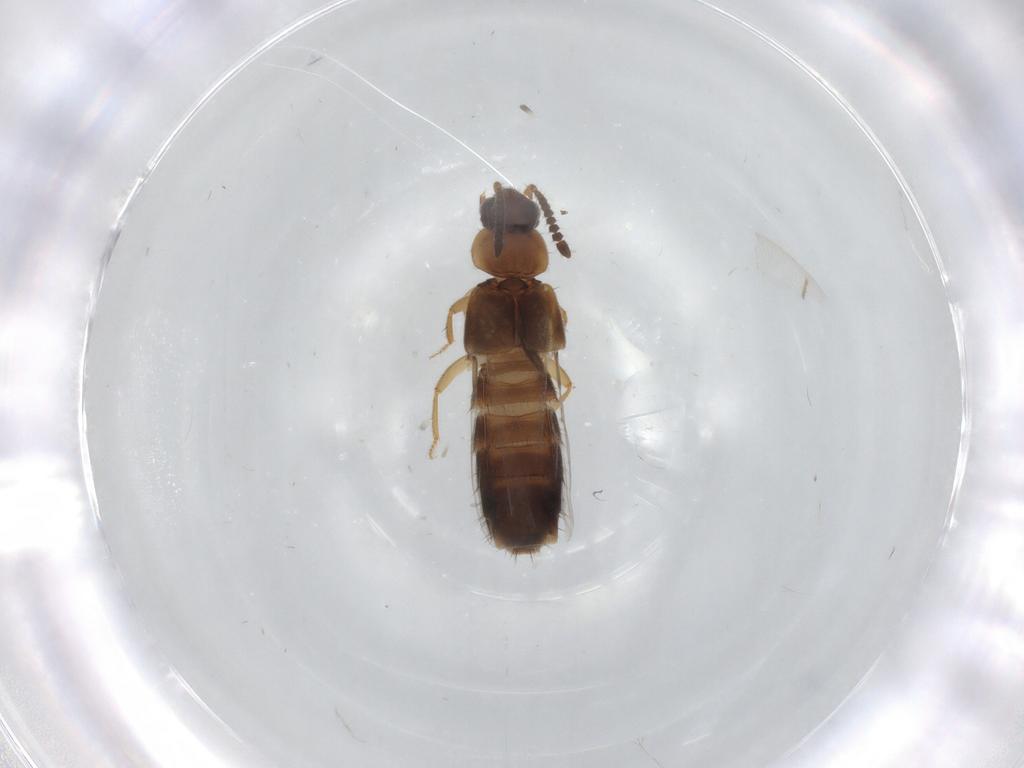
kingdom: Animalia
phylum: Arthropoda
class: Insecta
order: Coleoptera
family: Staphylinidae
